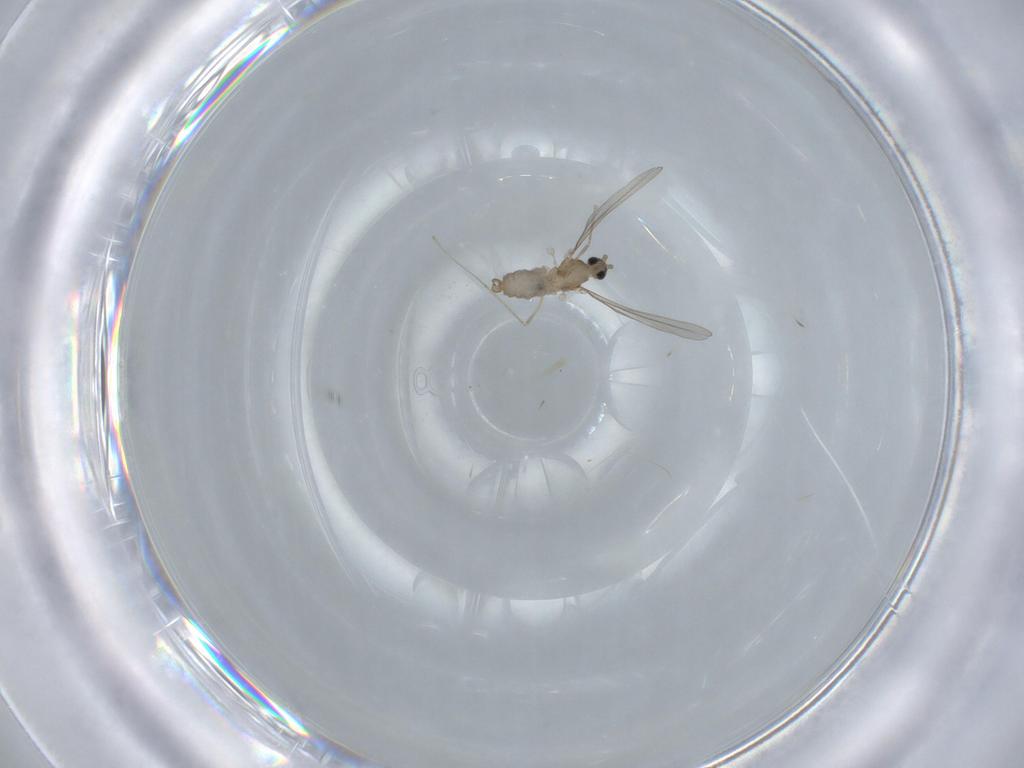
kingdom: Animalia
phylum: Arthropoda
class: Insecta
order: Diptera
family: Cecidomyiidae
